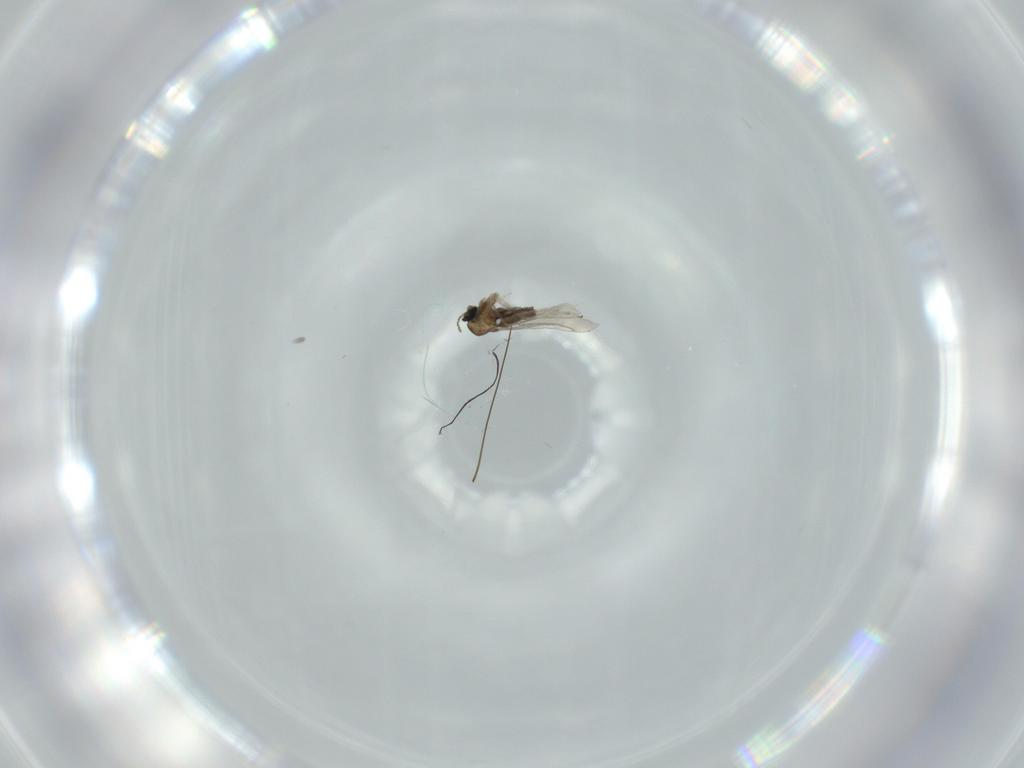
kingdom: Animalia
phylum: Arthropoda
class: Insecta
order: Diptera
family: Cecidomyiidae
